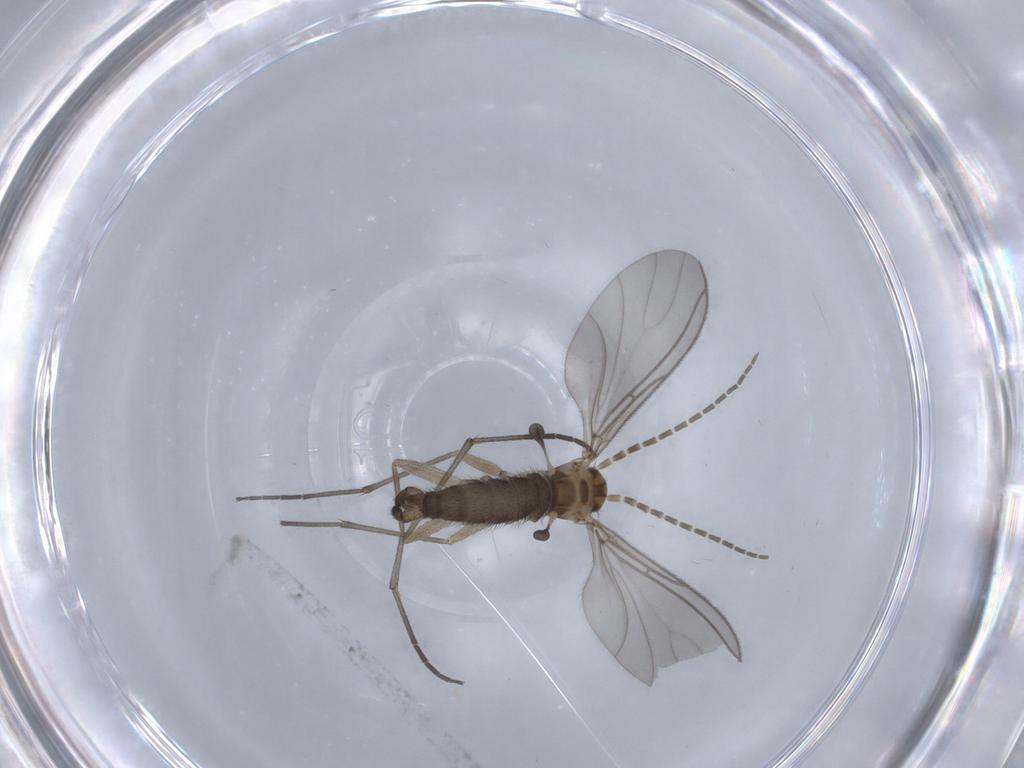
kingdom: Animalia
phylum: Arthropoda
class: Insecta
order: Diptera
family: Sciaridae
